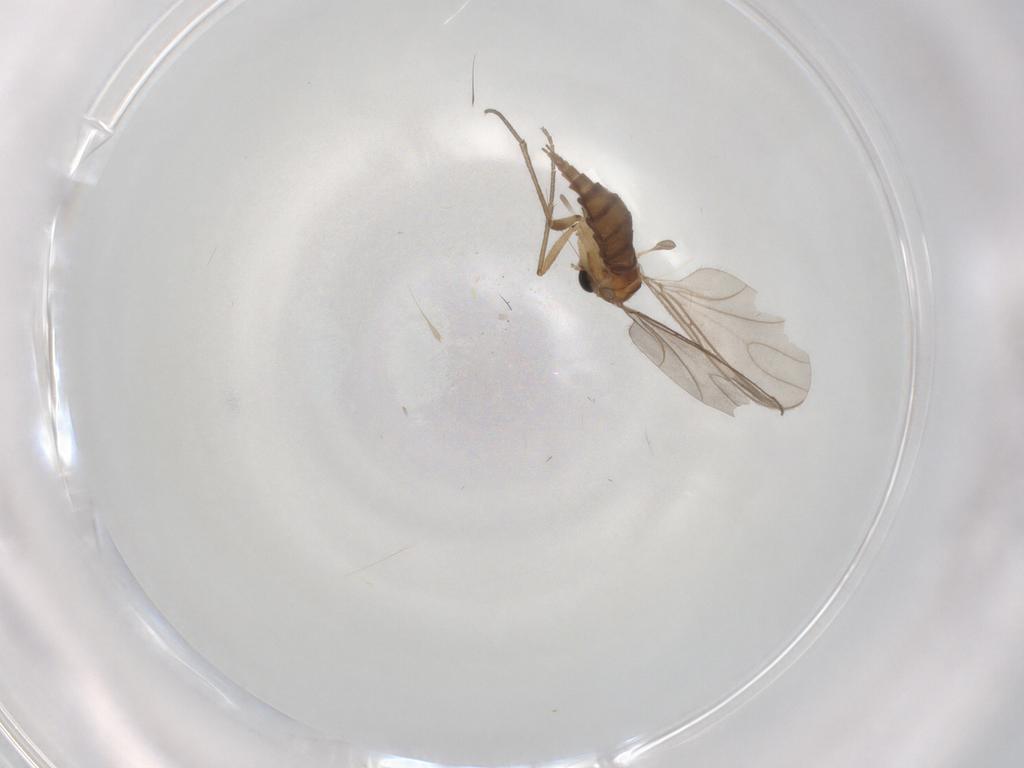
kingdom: Animalia
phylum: Arthropoda
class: Insecta
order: Diptera
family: Sciaridae
